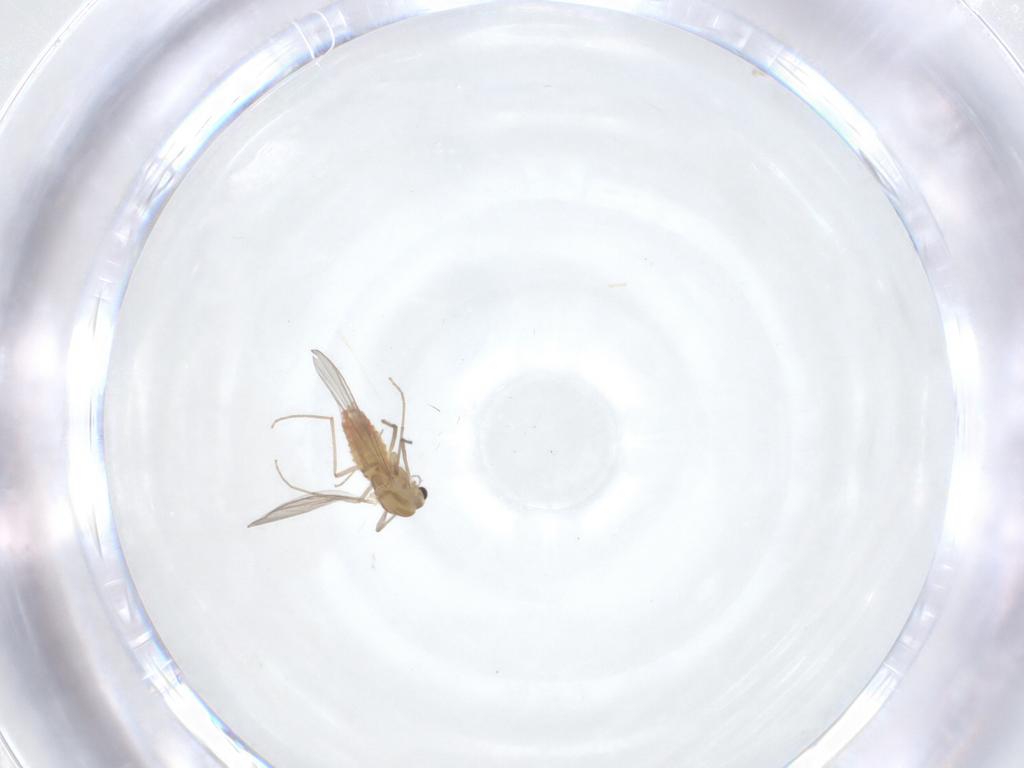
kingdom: Animalia
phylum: Arthropoda
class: Insecta
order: Diptera
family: Chironomidae
